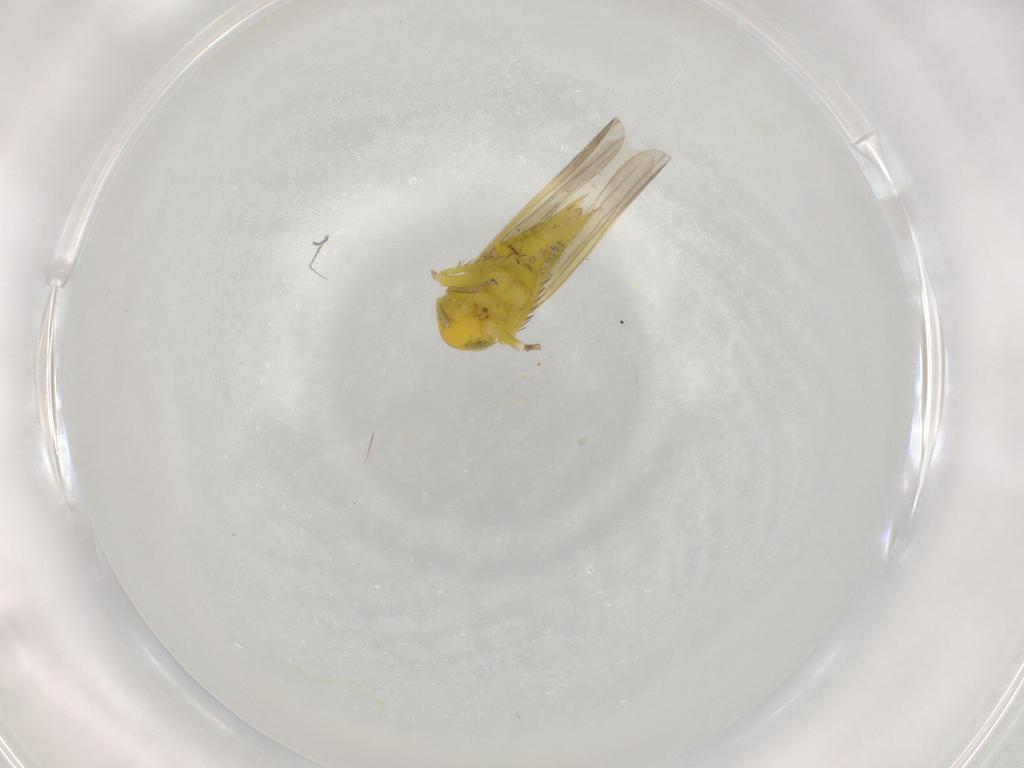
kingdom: Animalia
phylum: Arthropoda
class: Insecta
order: Hemiptera
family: Cicadellidae
